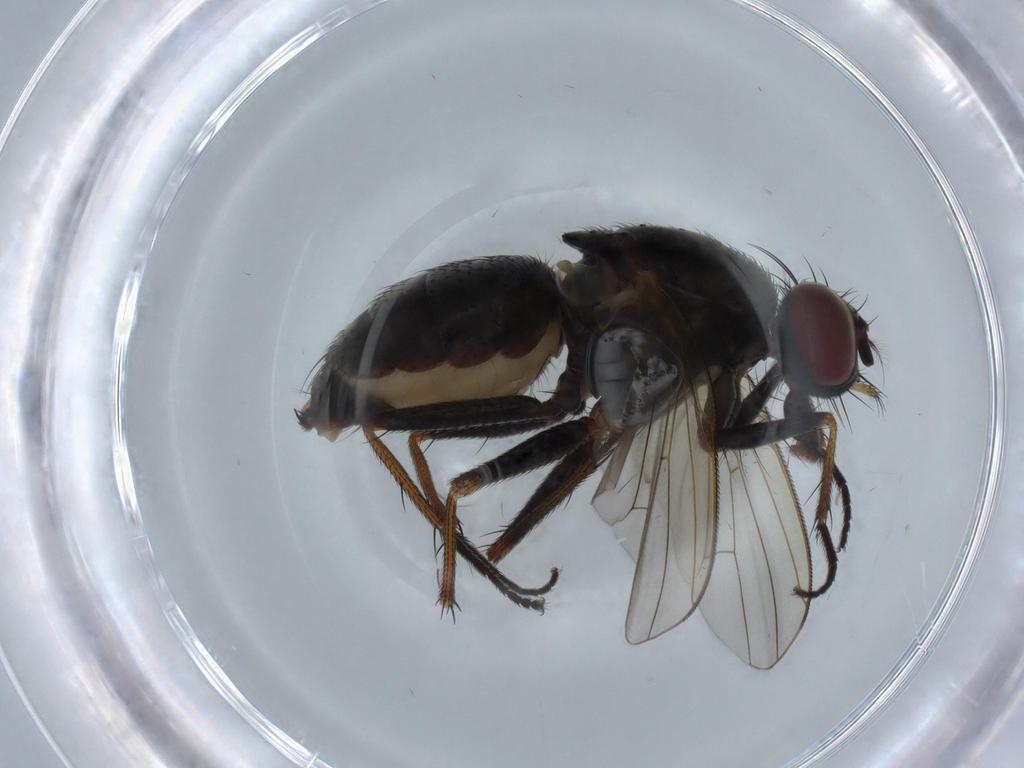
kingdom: Animalia
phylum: Arthropoda
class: Insecta
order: Diptera
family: Muscidae
